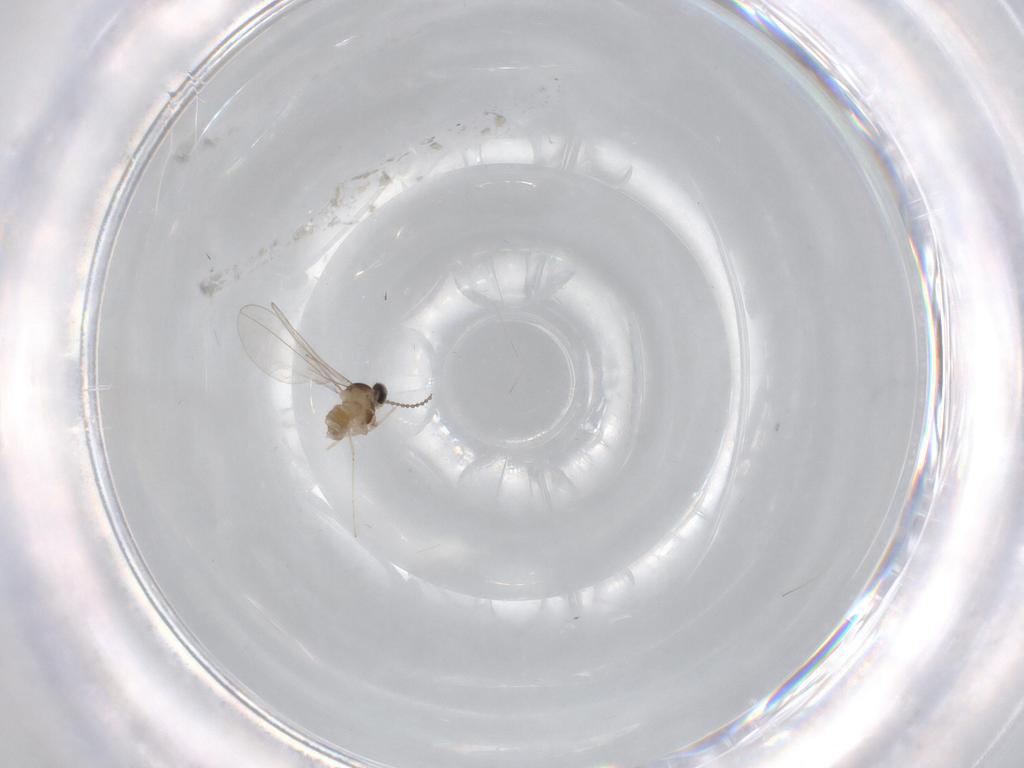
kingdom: Animalia
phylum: Arthropoda
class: Insecta
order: Diptera
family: Cecidomyiidae
